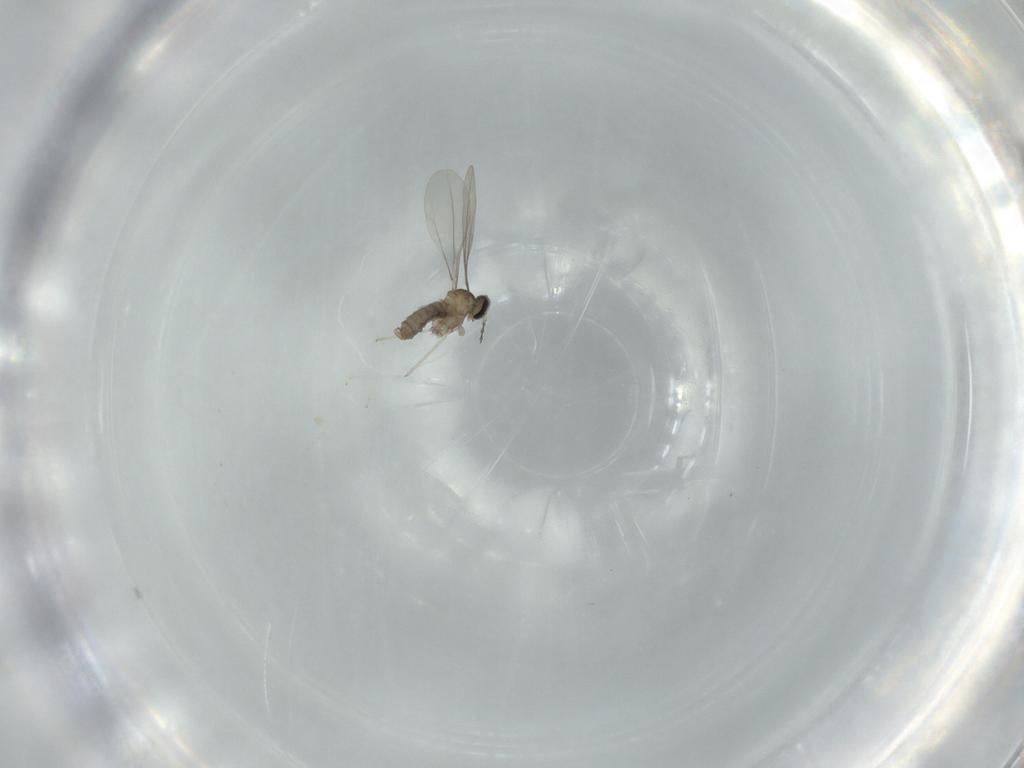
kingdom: Animalia
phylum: Arthropoda
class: Insecta
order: Diptera
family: Cecidomyiidae
